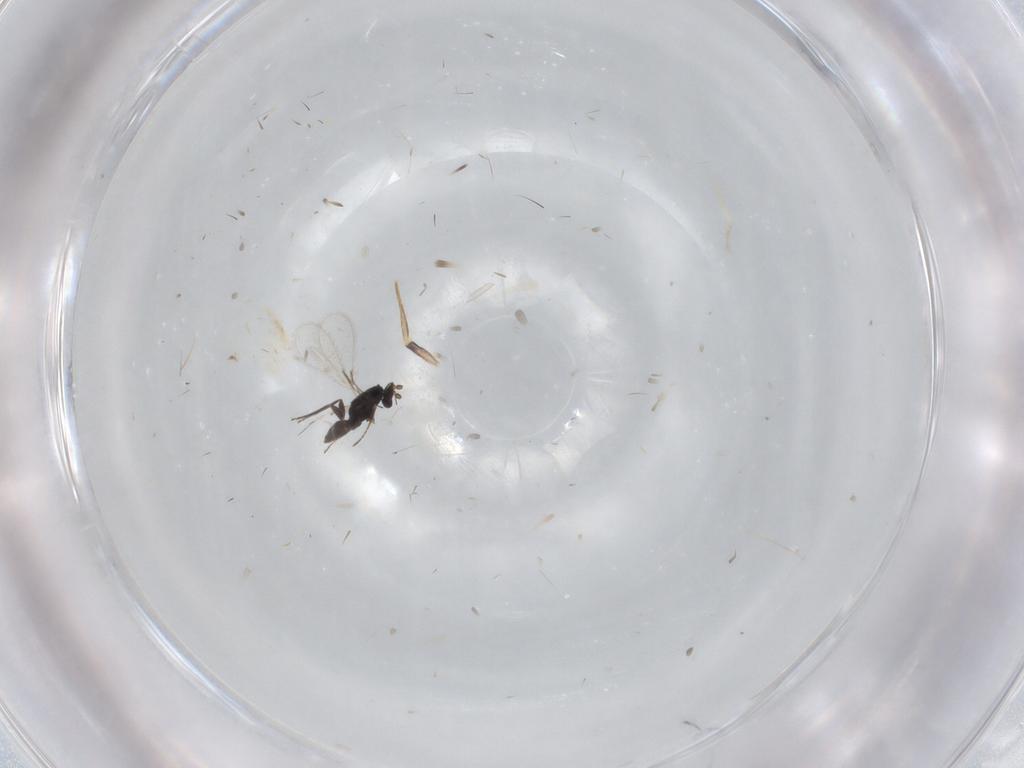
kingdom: Animalia
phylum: Arthropoda
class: Insecta
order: Hymenoptera
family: Mymaridae
